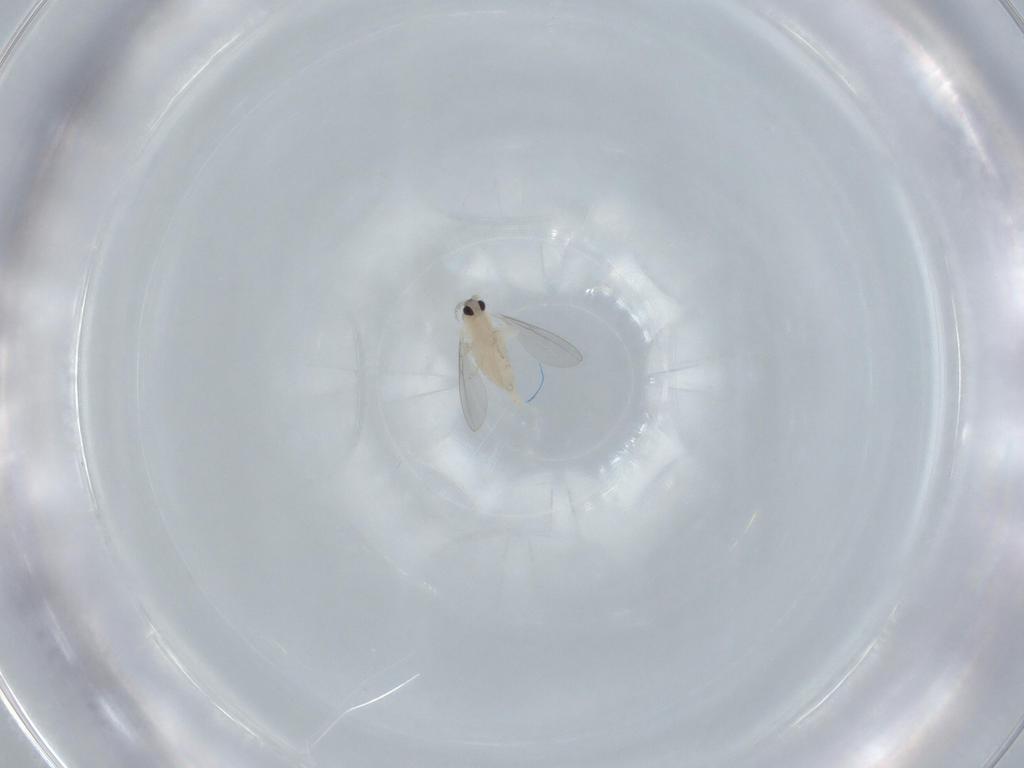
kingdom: Animalia
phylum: Arthropoda
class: Insecta
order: Diptera
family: Cecidomyiidae
